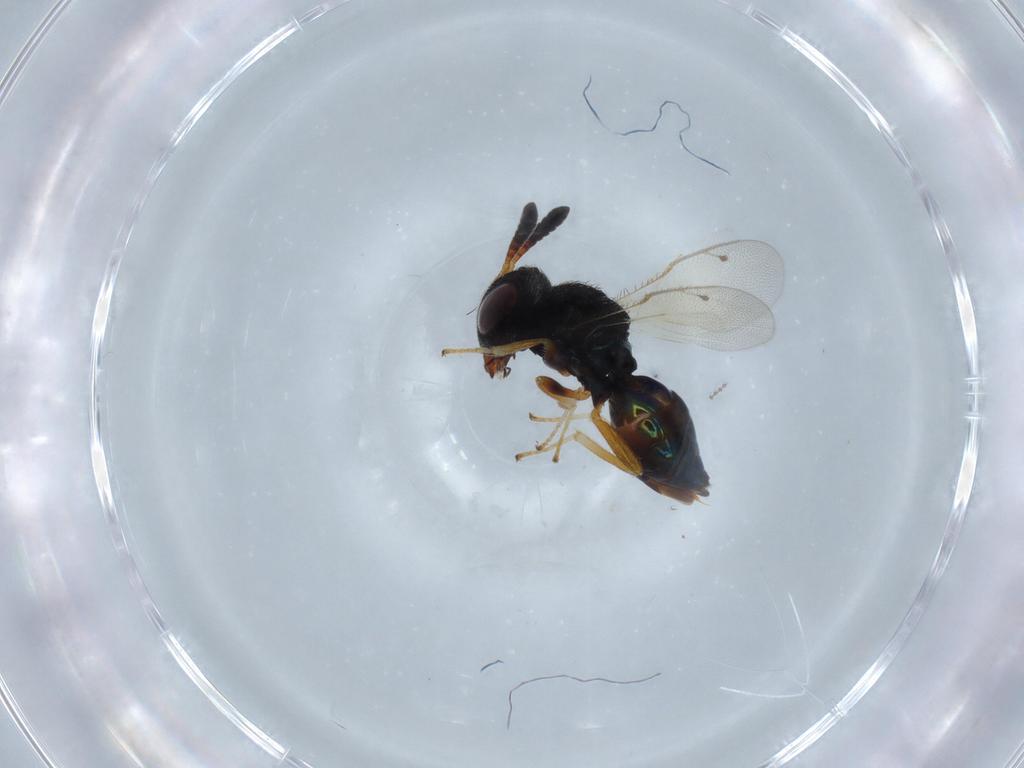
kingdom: Animalia
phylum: Arthropoda
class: Insecta
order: Hymenoptera
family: Agaonidae
